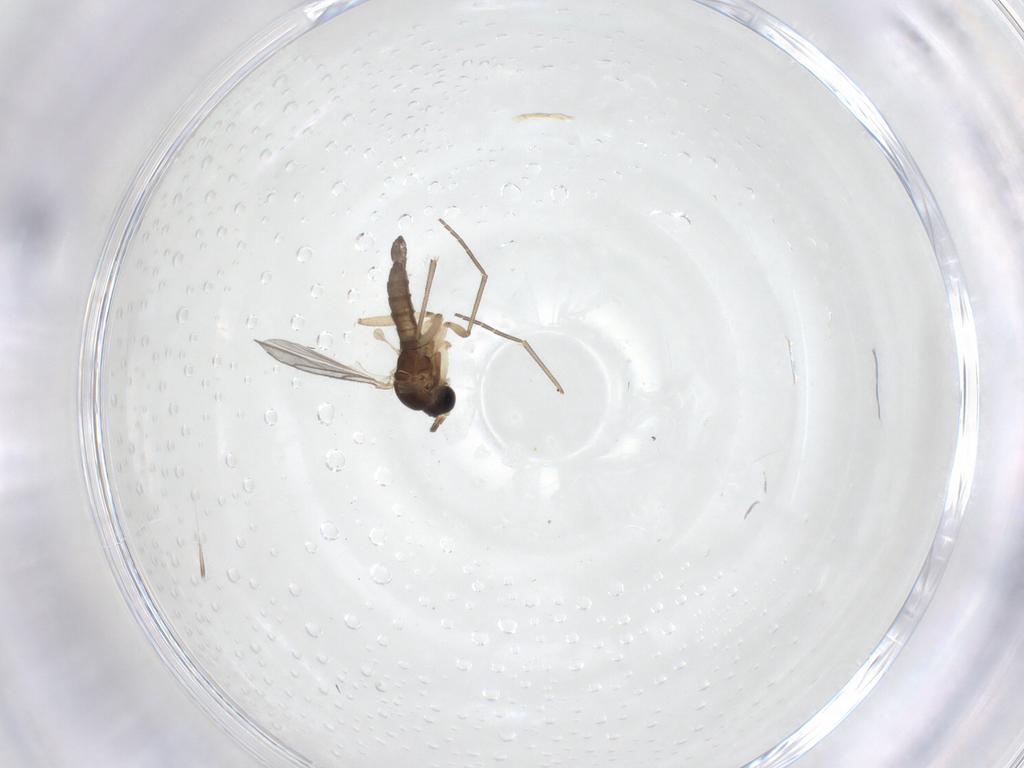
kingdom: Animalia
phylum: Arthropoda
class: Insecta
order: Diptera
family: Sciaridae
